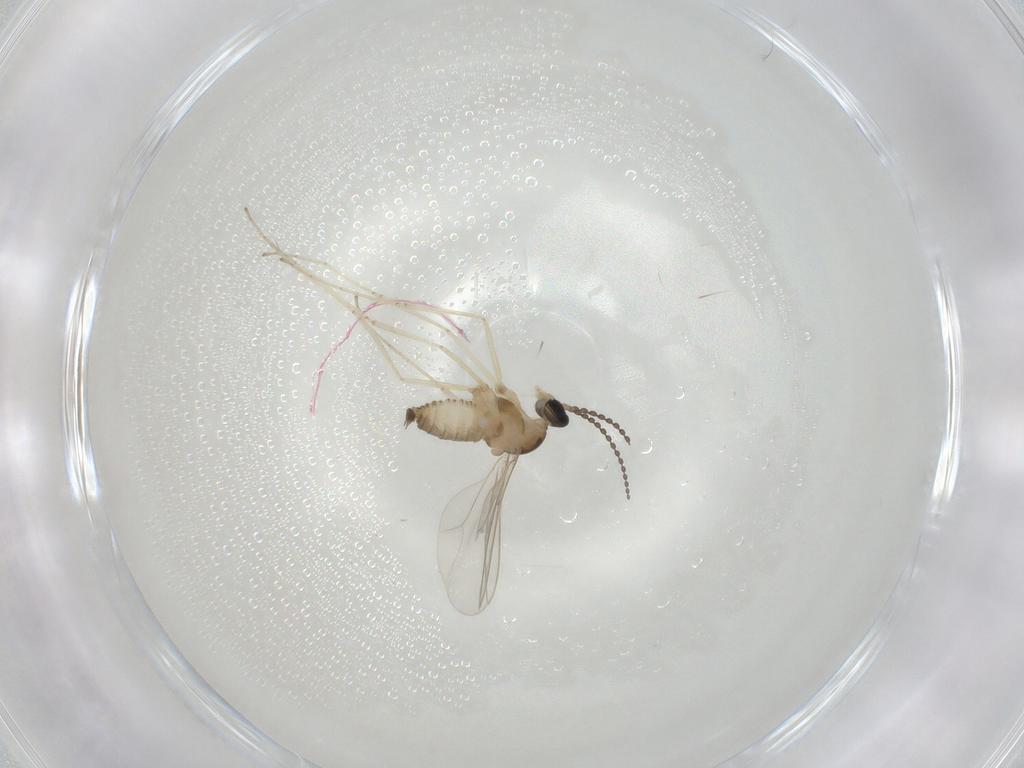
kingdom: Animalia
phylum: Arthropoda
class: Insecta
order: Diptera
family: Cecidomyiidae
